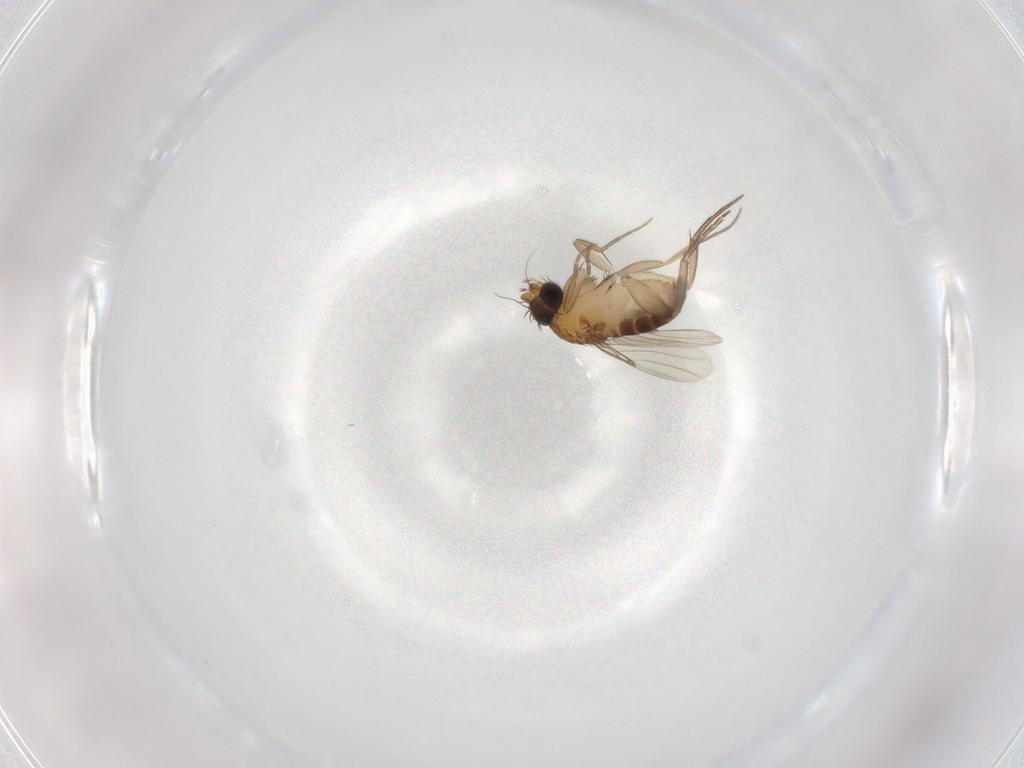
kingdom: Animalia
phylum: Arthropoda
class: Insecta
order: Diptera
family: Phoridae
